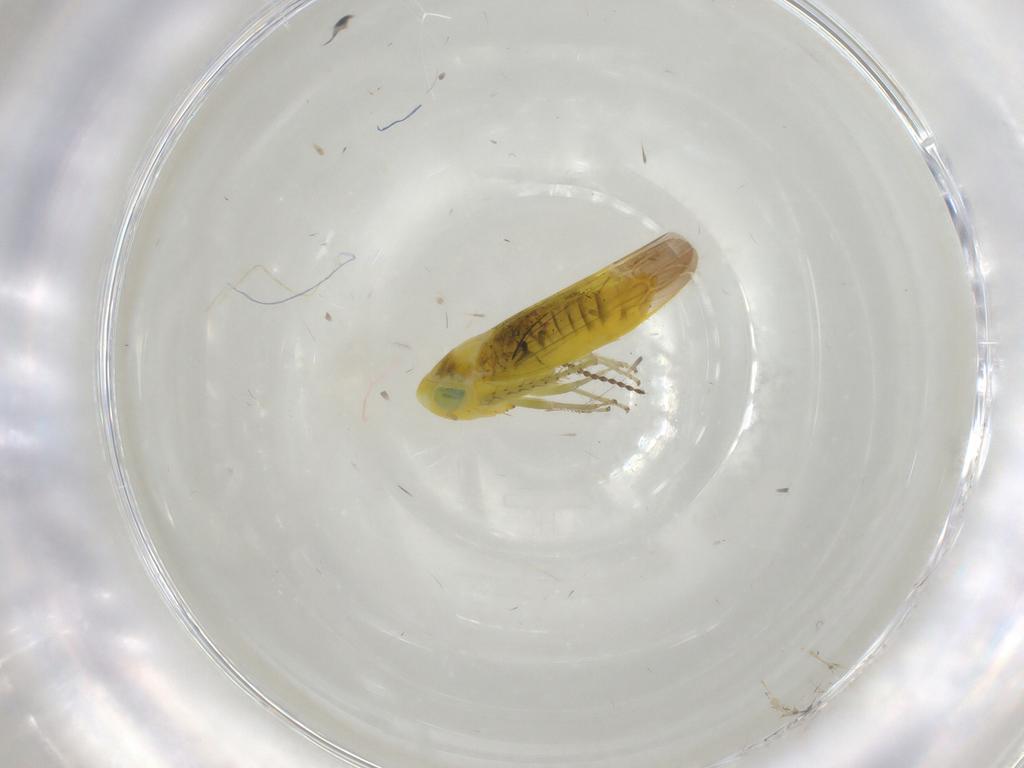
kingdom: Animalia
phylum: Arthropoda
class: Insecta
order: Hemiptera
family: Cicadellidae
